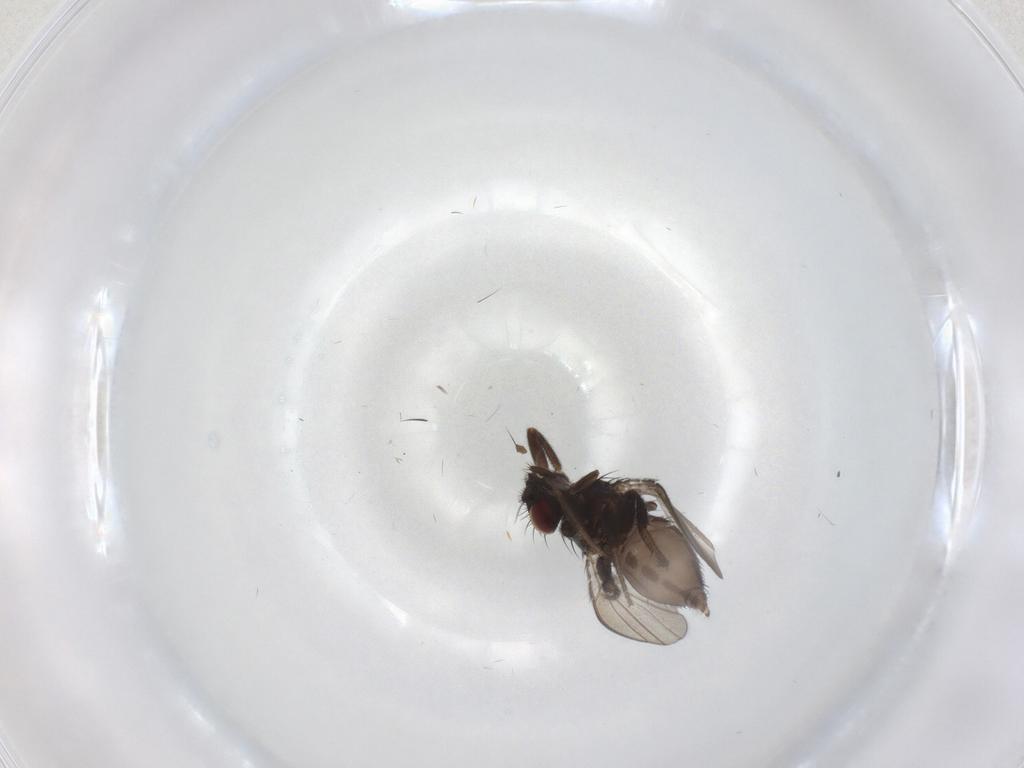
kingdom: Animalia
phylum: Arthropoda
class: Insecta
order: Diptera
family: Milichiidae
